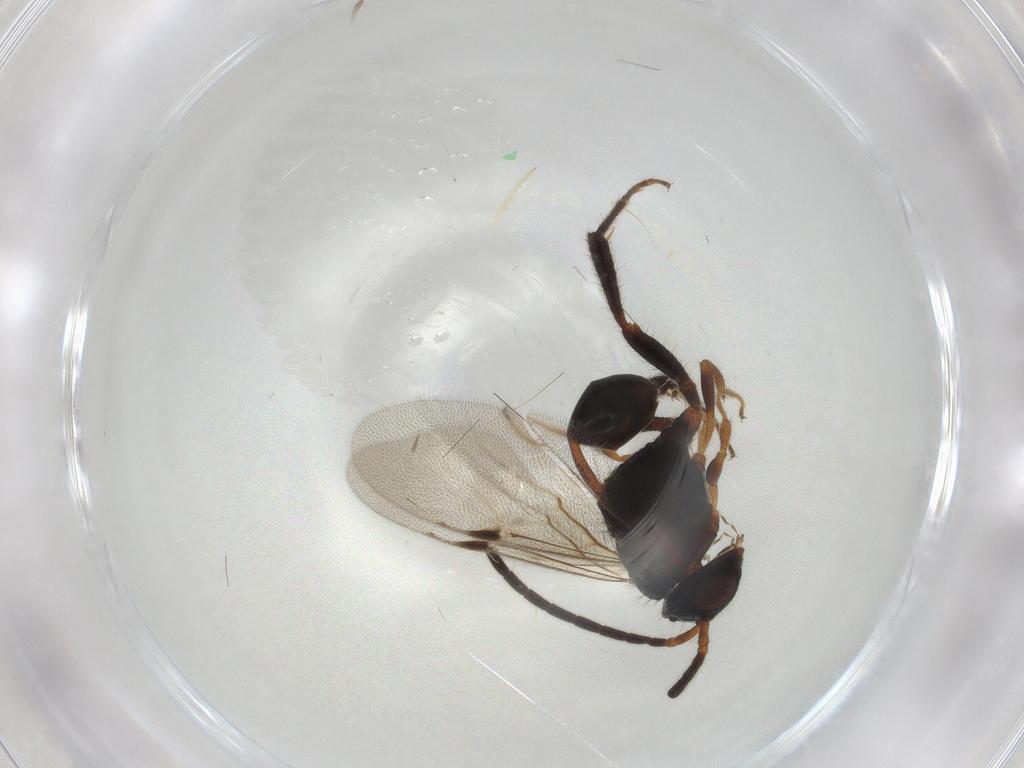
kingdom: Animalia
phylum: Arthropoda
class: Insecta
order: Hymenoptera
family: Evaniidae
